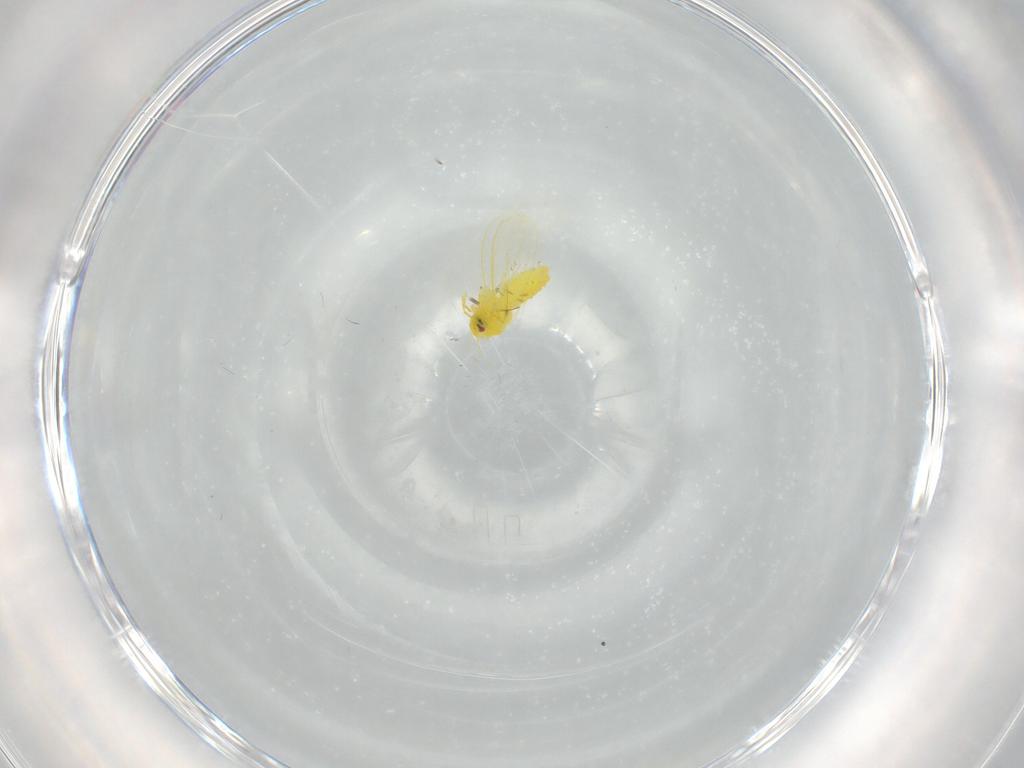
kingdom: Animalia
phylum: Arthropoda
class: Insecta
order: Hemiptera
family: Aleyrodidae
